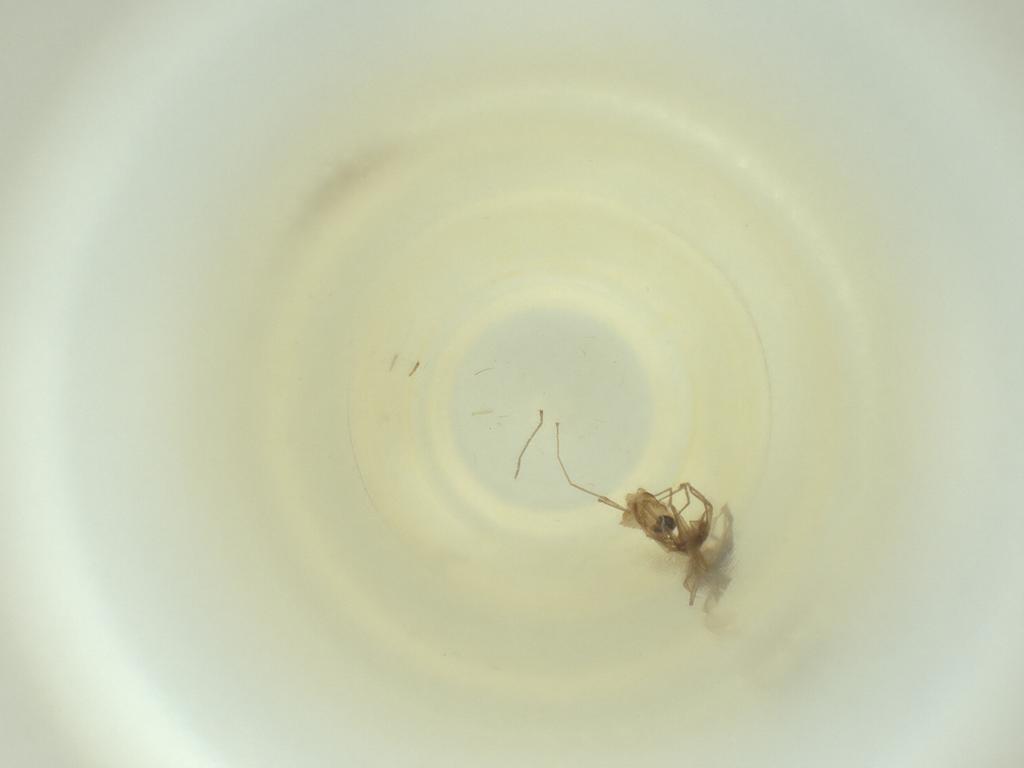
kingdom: Animalia
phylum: Arthropoda
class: Insecta
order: Diptera
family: Cecidomyiidae
